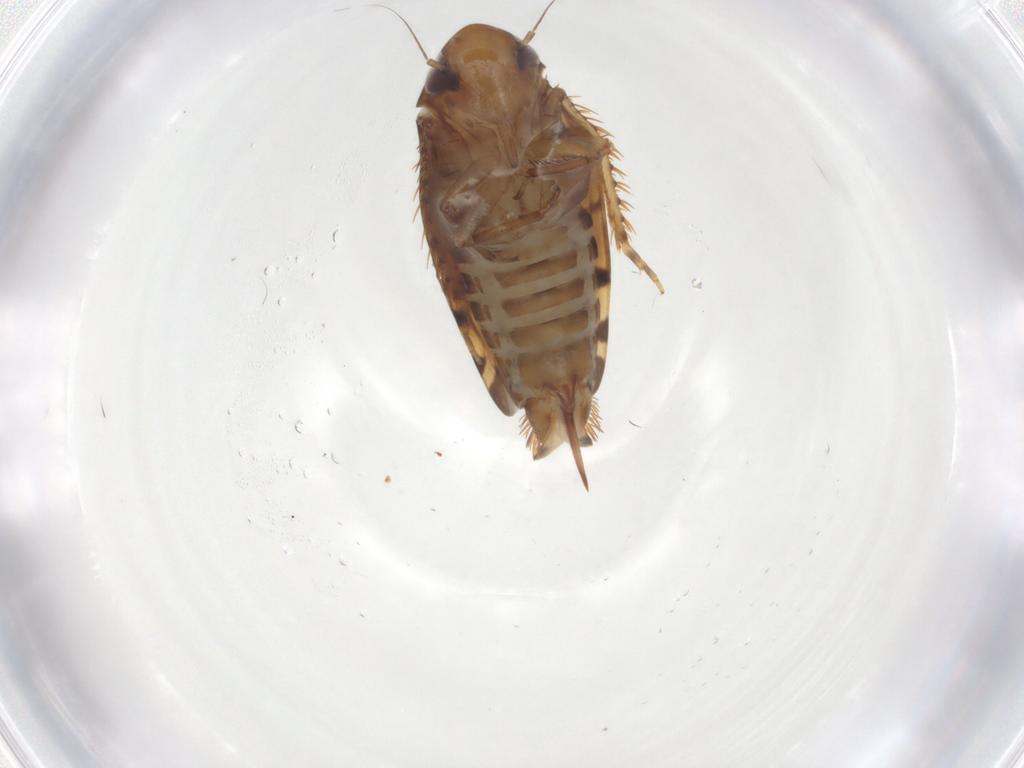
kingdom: Animalia
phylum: Arthropoda
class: Insecta
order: Hemiptera
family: Cicadellidae
